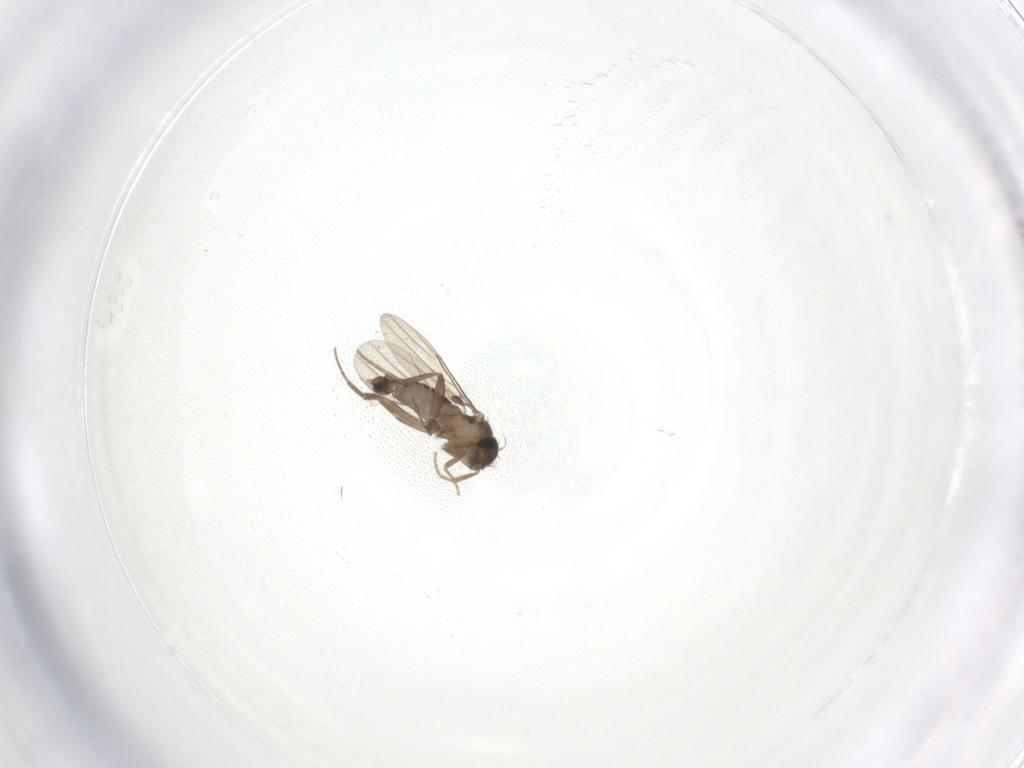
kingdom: Animalia
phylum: Arthropoda
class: Insecta
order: Diptera
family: Phoridae
